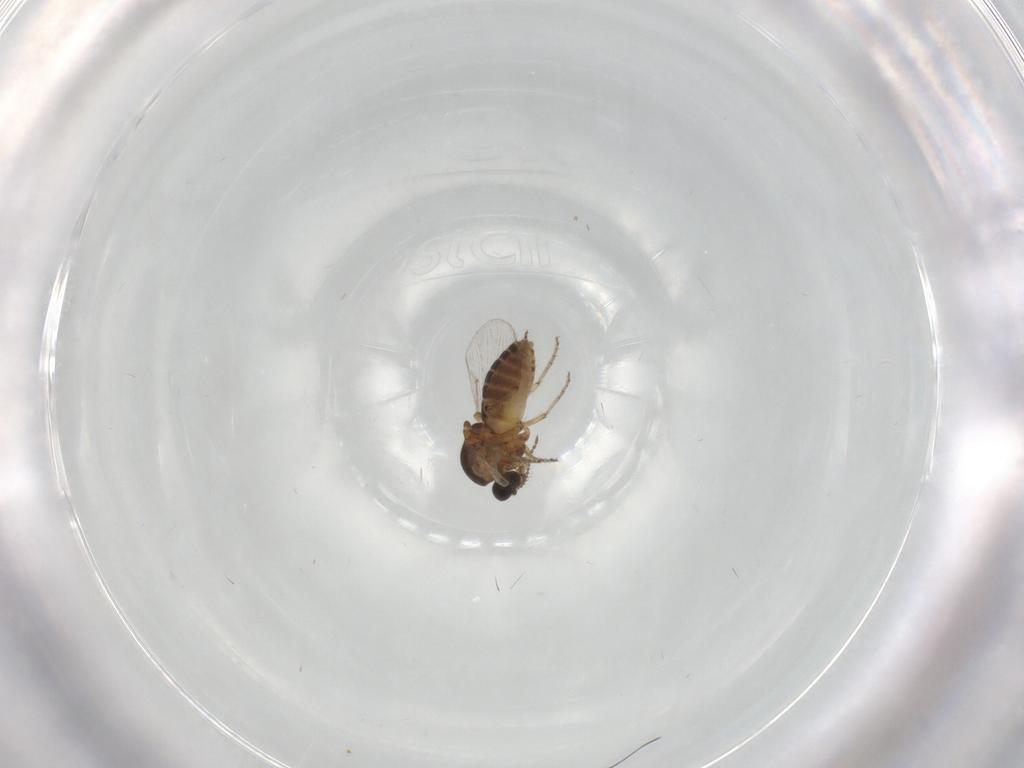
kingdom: Animalia
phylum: Arthropoda
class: Insecta
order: Diptera
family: Ceratopogonidae
